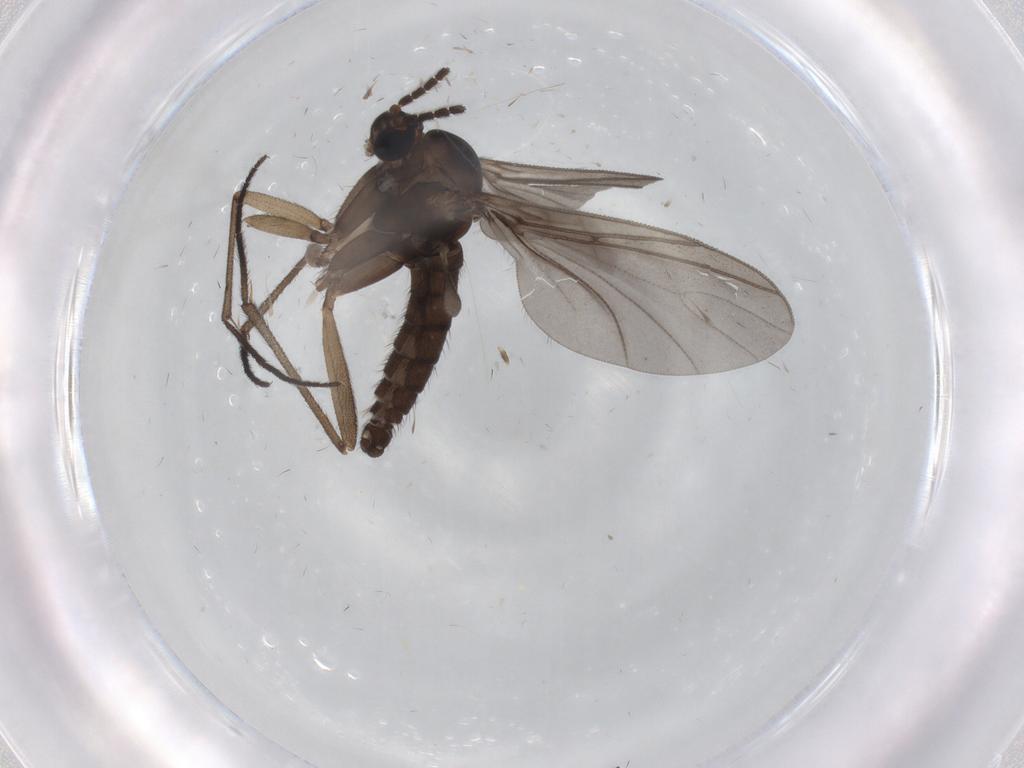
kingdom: Animalia
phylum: Arthropoda
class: Insecta
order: Diptera
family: Sciaridae
